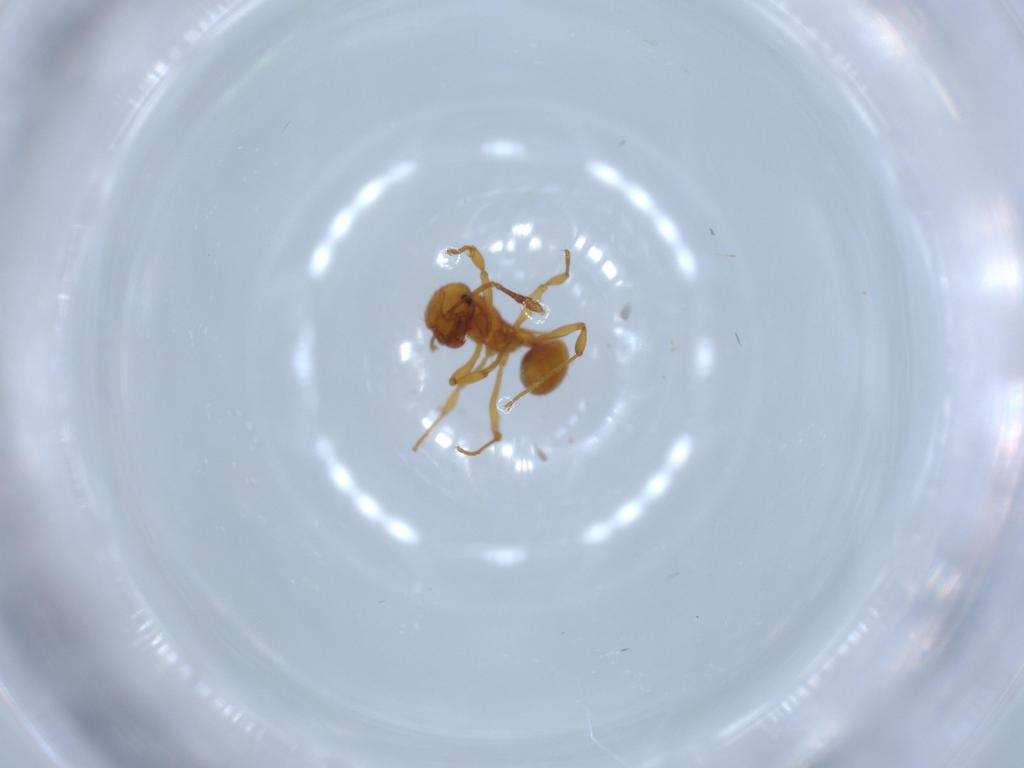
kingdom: Animalia
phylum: Arthropoda
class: Insecta
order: Hymenoptera
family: Formicidae
